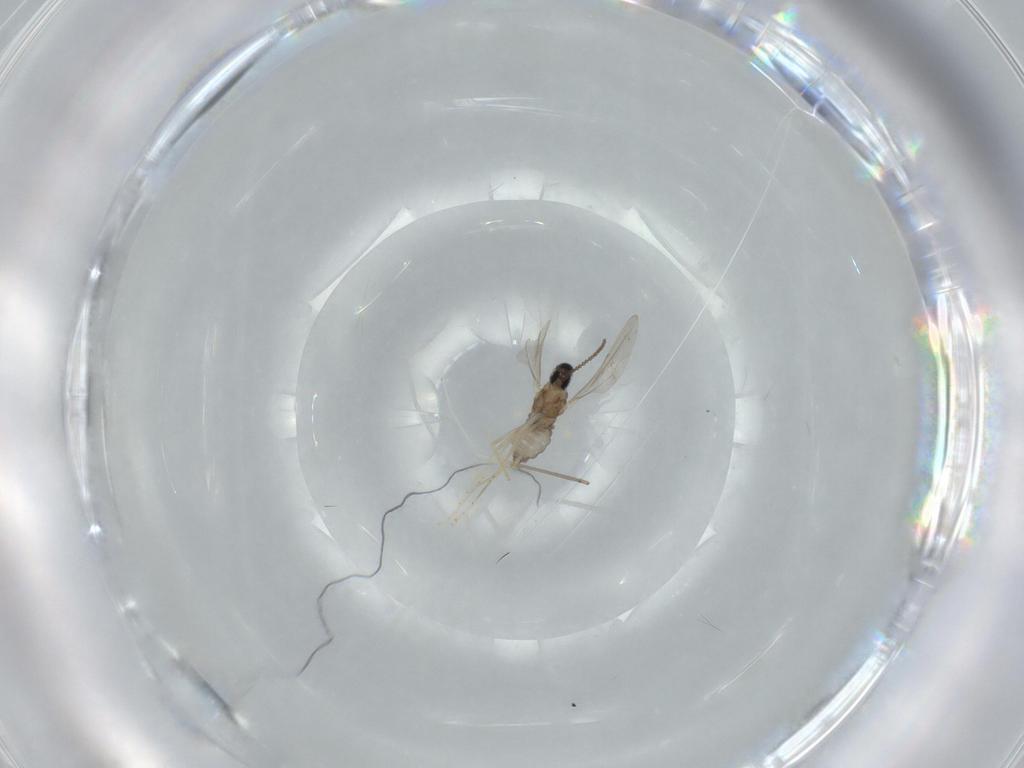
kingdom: Animalia
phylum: Arthropoda
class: Insecta
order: Diptera
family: Cecidomyiidae
